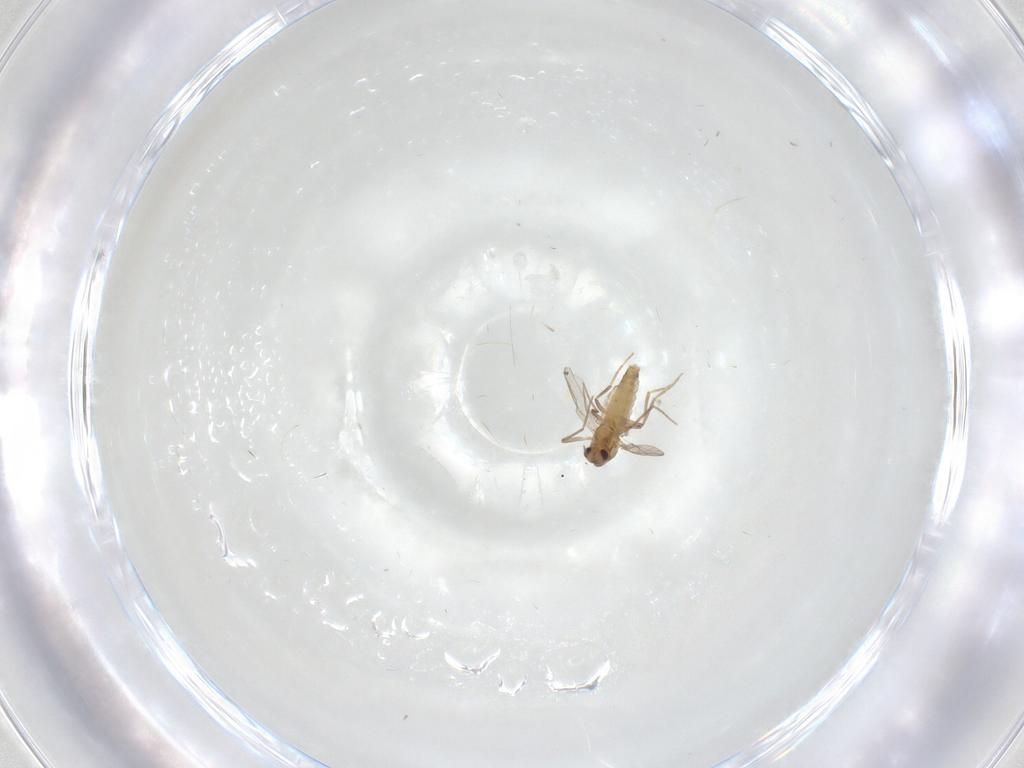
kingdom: Animalia
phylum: Arthropoda
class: Insecta
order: Diptera
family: Chironomidae
